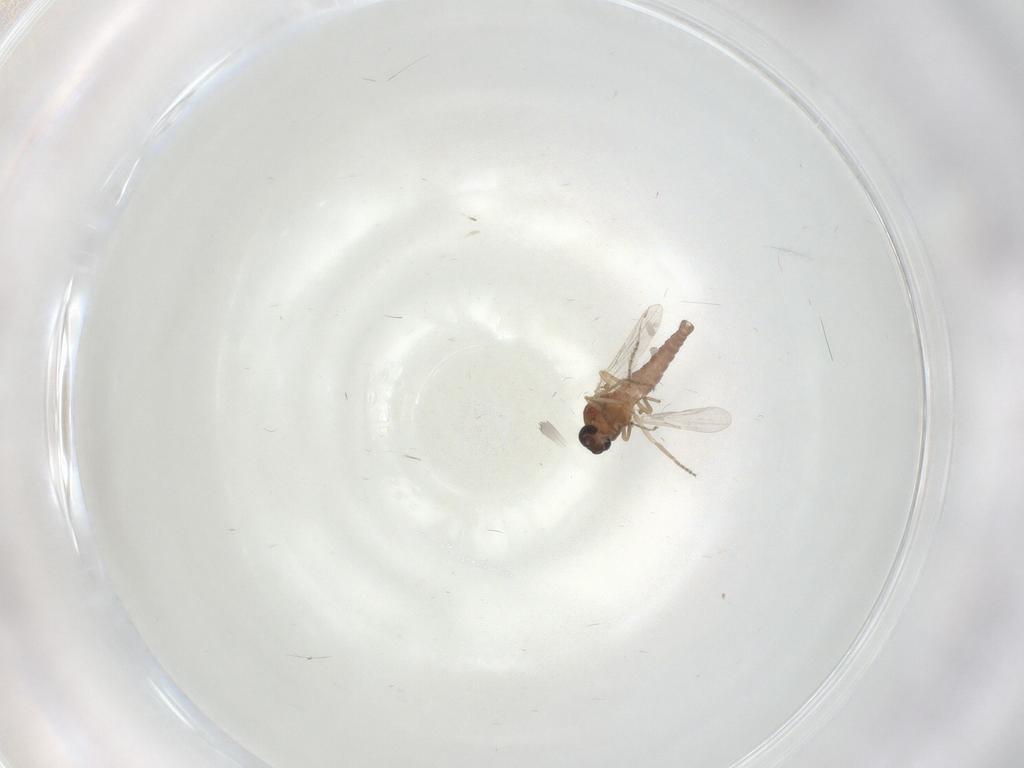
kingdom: Animalia
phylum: Arthropoda
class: Insecta
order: Diptera
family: Ceratopogonidae
